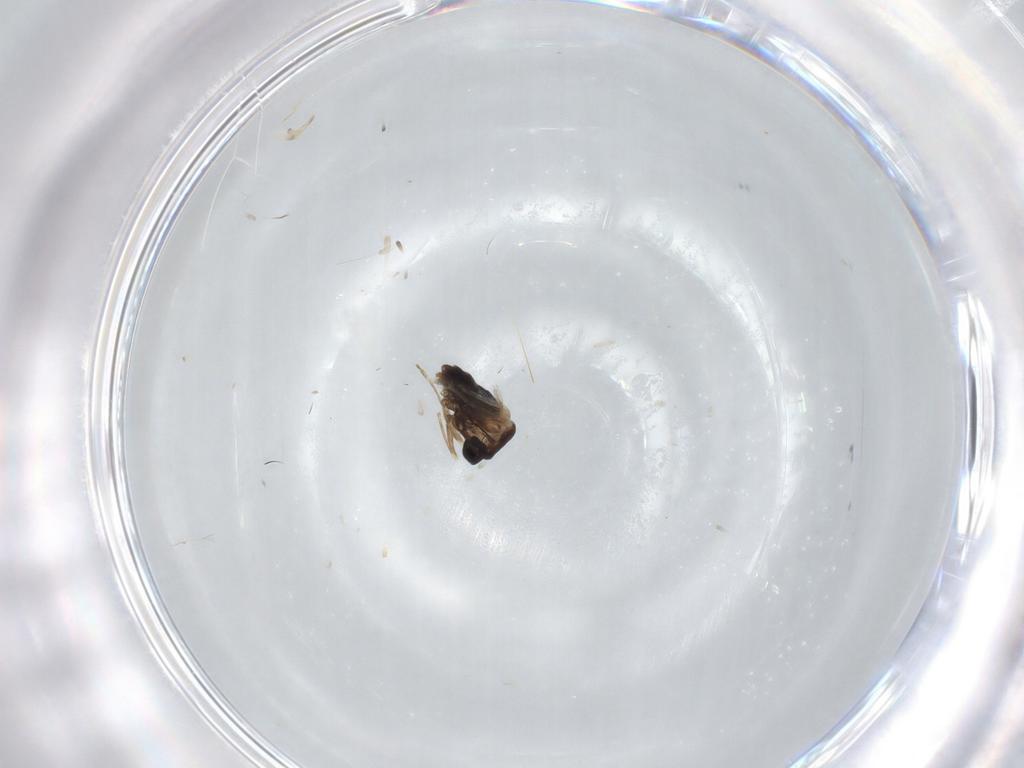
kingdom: Animalia
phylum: Arthropoda
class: Insecta
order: Diptera
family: Cecidomyiidae
